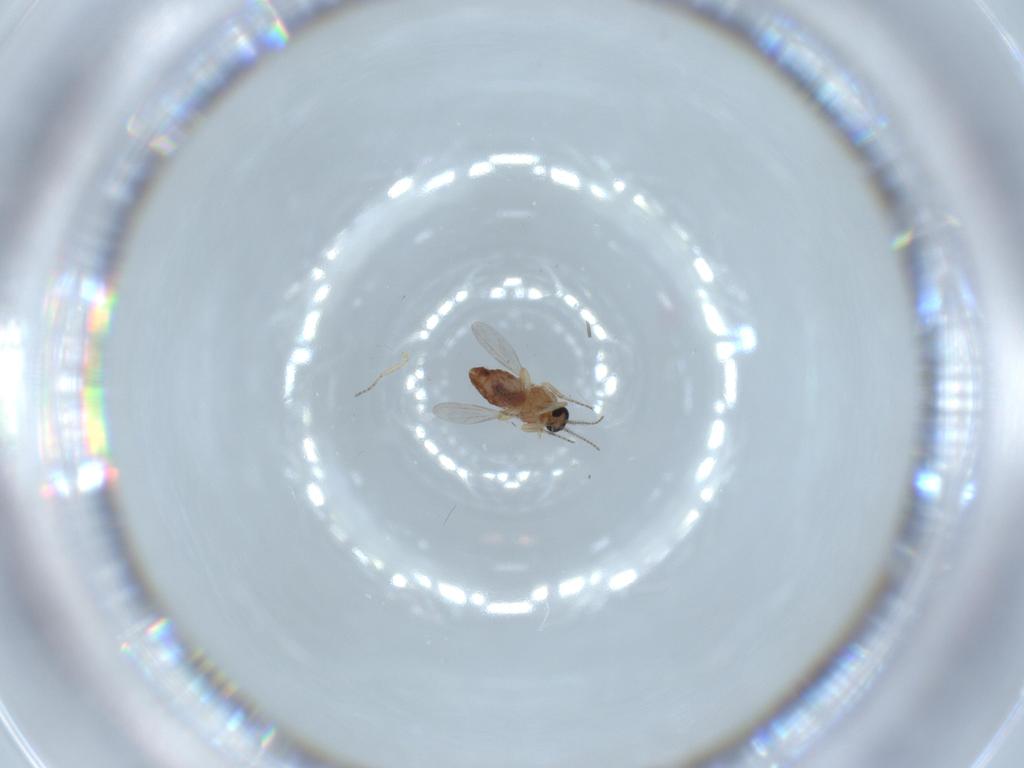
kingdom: Animalia
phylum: Arthropoda
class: Insecta
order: Diptera
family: Ceratopogonidae
